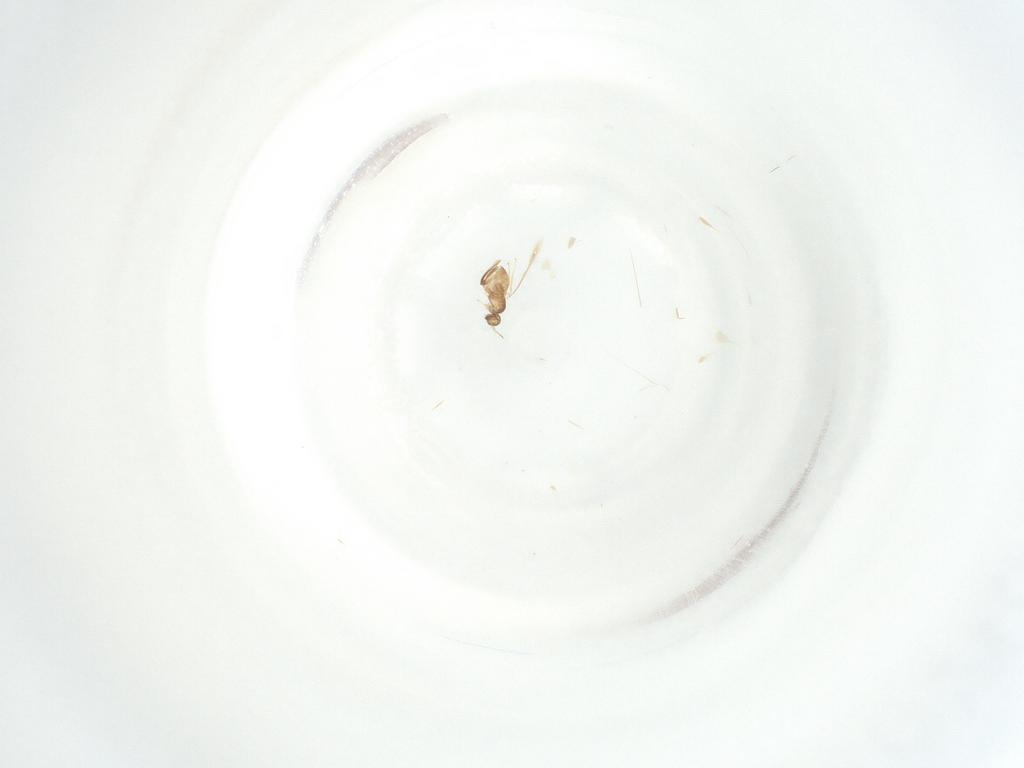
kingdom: Animalia
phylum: Arthropoda
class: Insecta
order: Hymenoptera
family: Mymaridae
